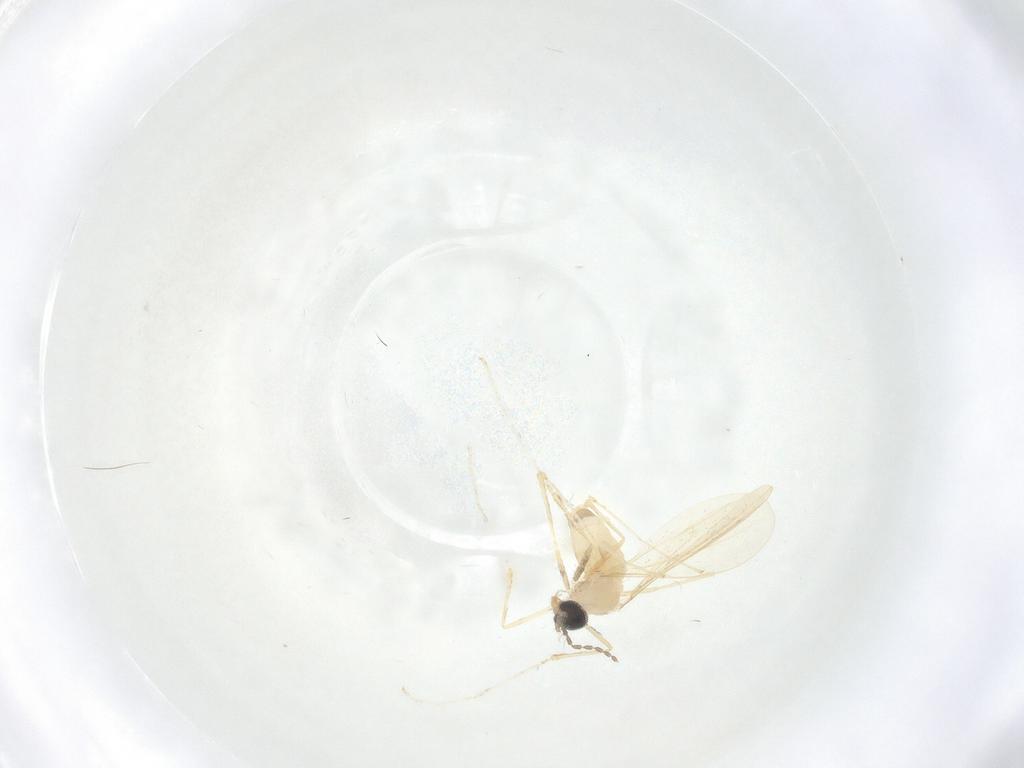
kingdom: Animalia
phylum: Arthropoda
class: Insecta
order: Diptera
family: Cecidomyiidae
